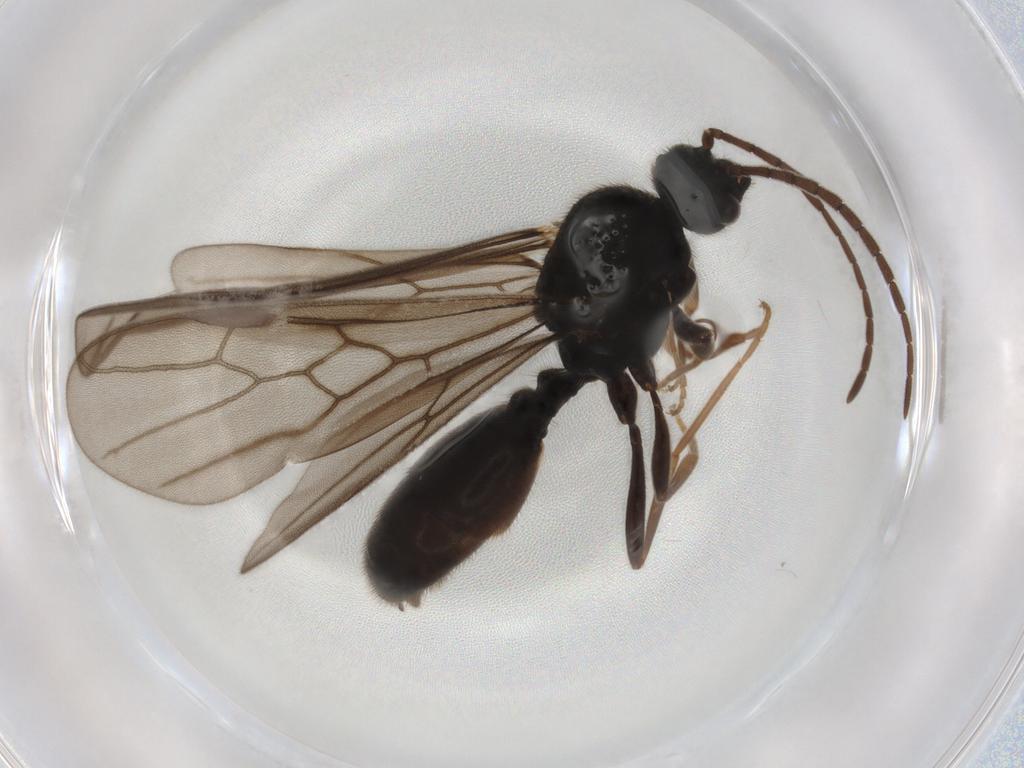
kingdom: Animalia
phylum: Arthropoda
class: Insecta
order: Hymenoptera
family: Formicidae
